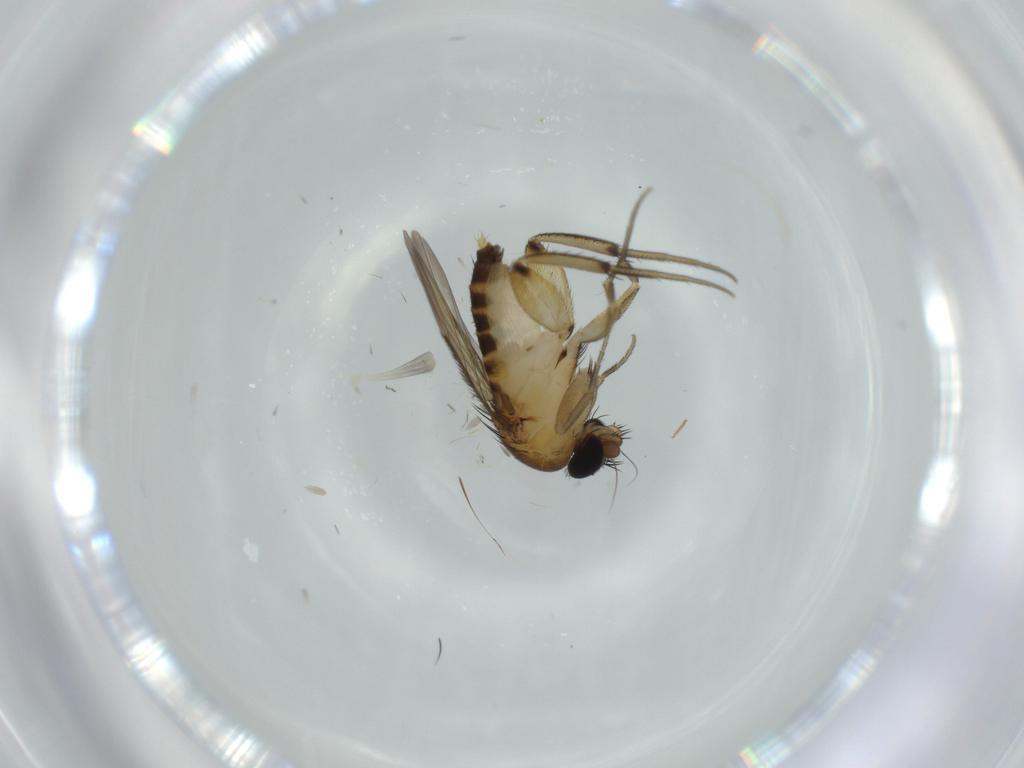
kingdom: Animalia
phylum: Arthropoda
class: Insecta
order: Diptera
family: Phoridae
